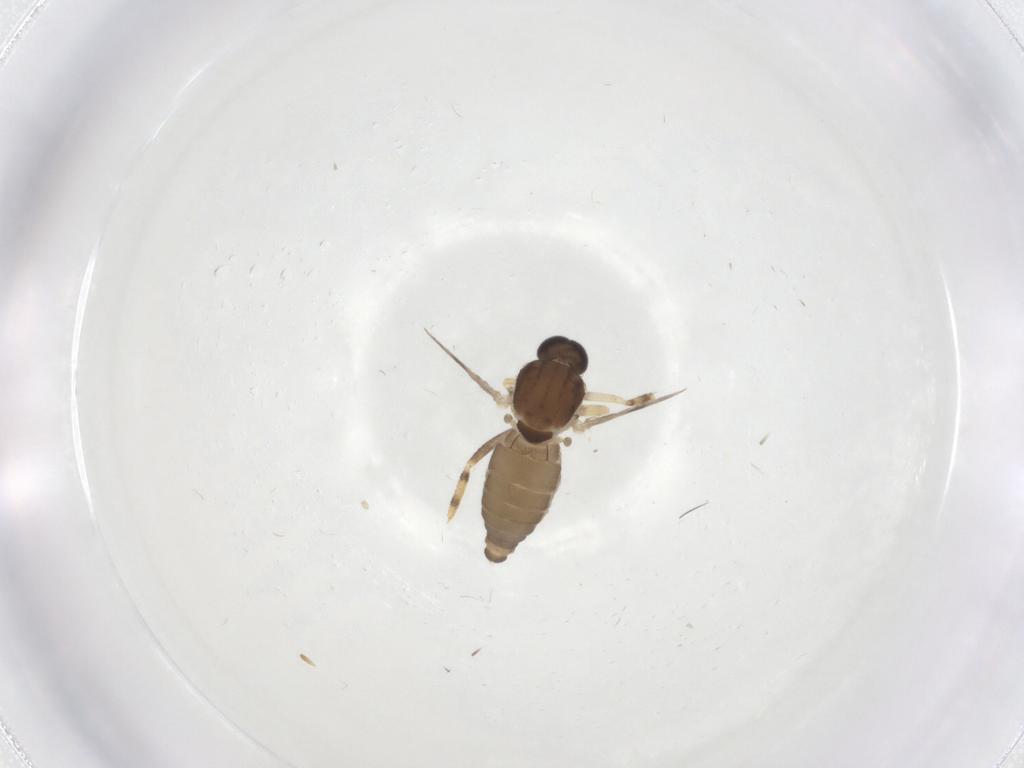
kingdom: Animalia
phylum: Arthropoda
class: Insecta
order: Diptera
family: Ceratopogonidae
